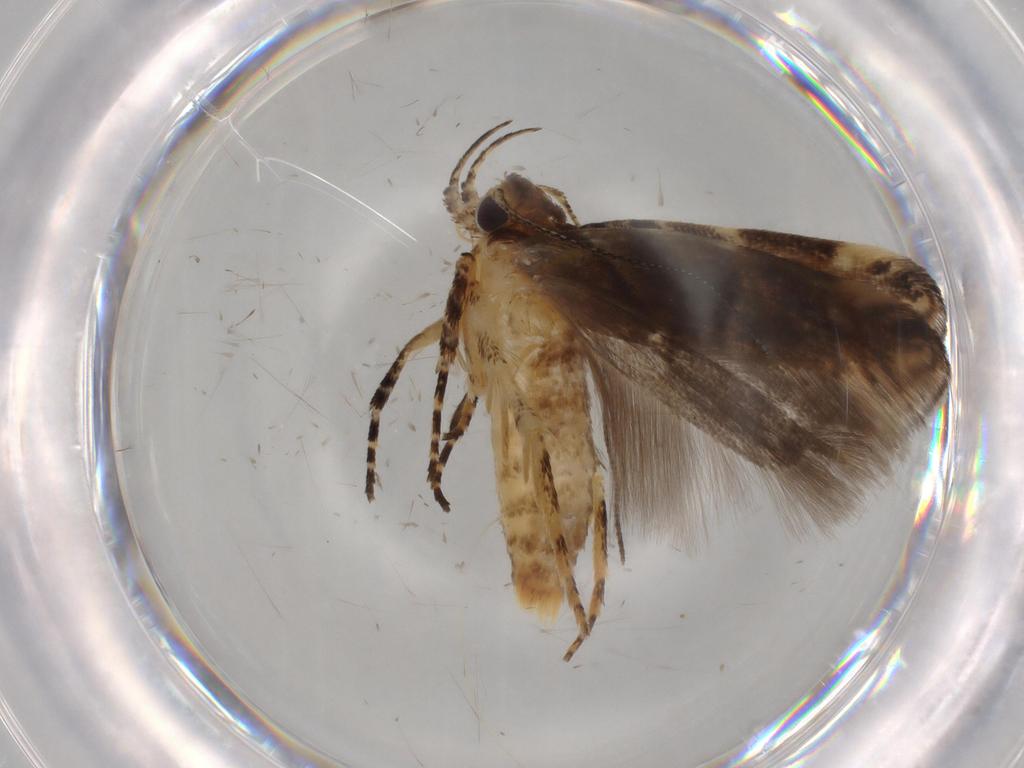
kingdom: Animalia
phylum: Arthropoda
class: Insecta
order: Lepidoptera
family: Gelechiidae
